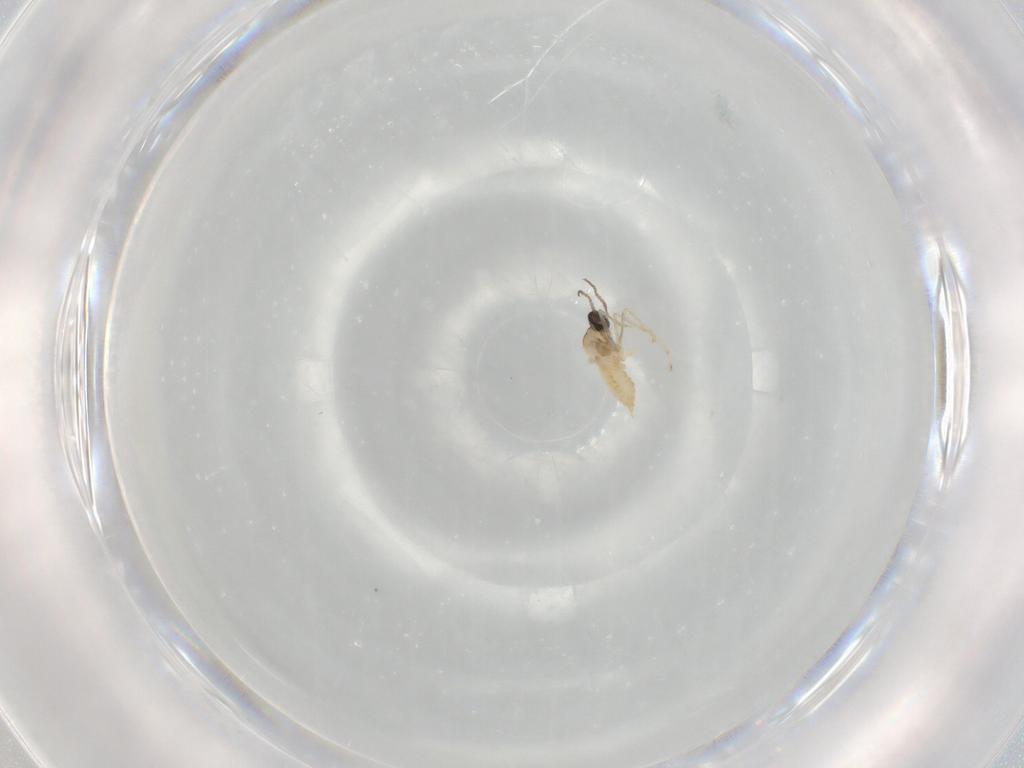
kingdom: Animalia
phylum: Arthropoda
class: Insecta
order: Diptera
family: Cecidomyiidae
